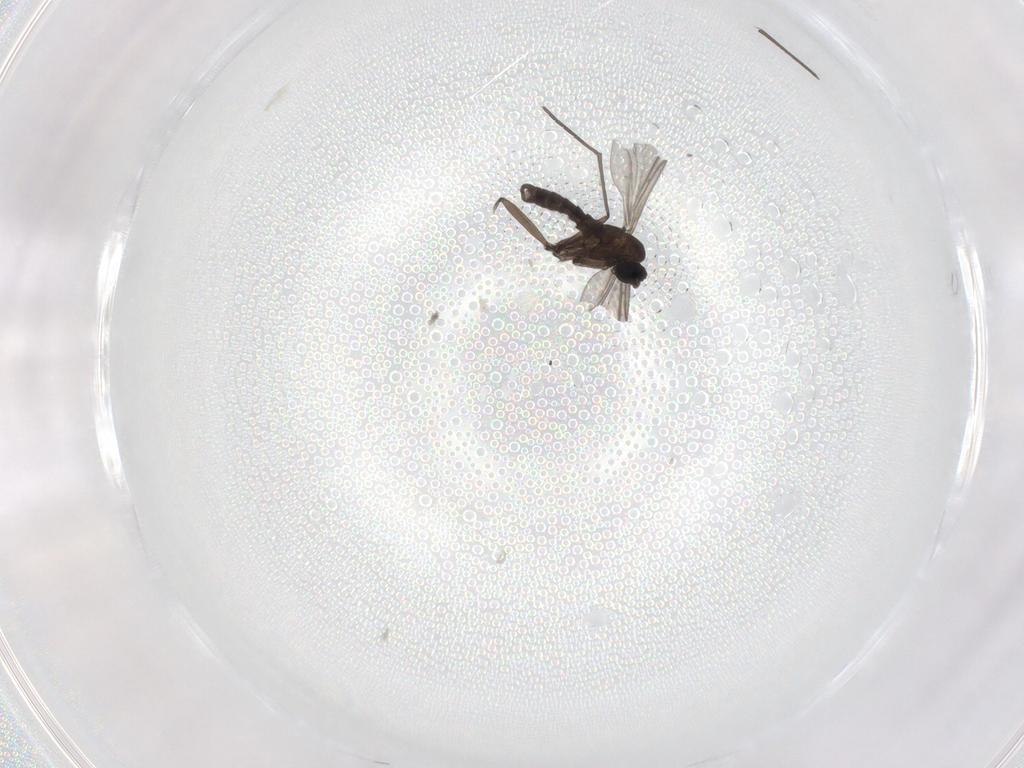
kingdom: Animalia
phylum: Arthropoda
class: Insecta
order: Diptera
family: Sciaridae
